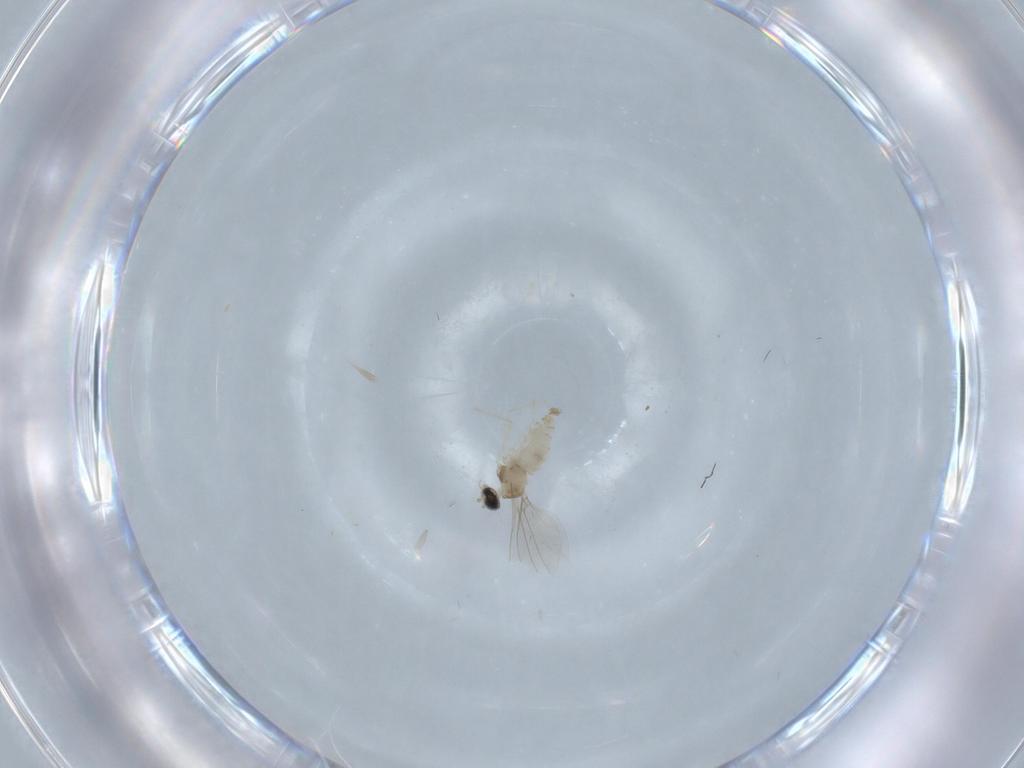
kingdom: Animalia
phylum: Arthropoda
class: Insecta
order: Diptera
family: Cecidomyiidae
